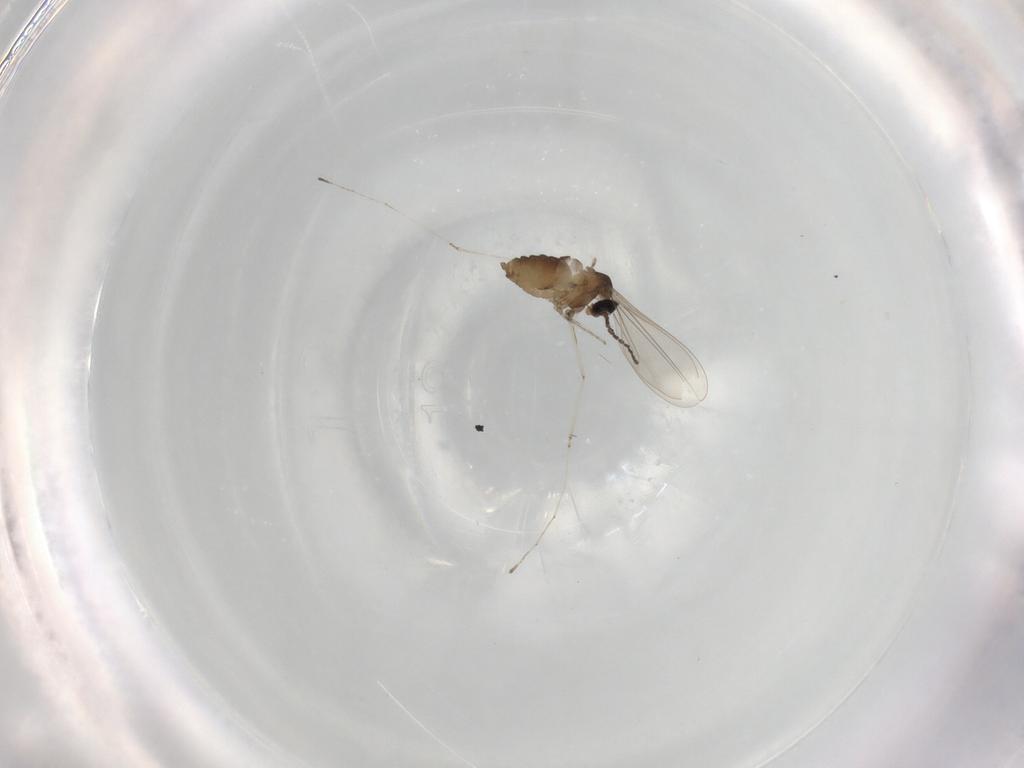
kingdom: Animalia
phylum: Arthropoda
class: Insecta
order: Diptera
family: Cecidomyiidae
